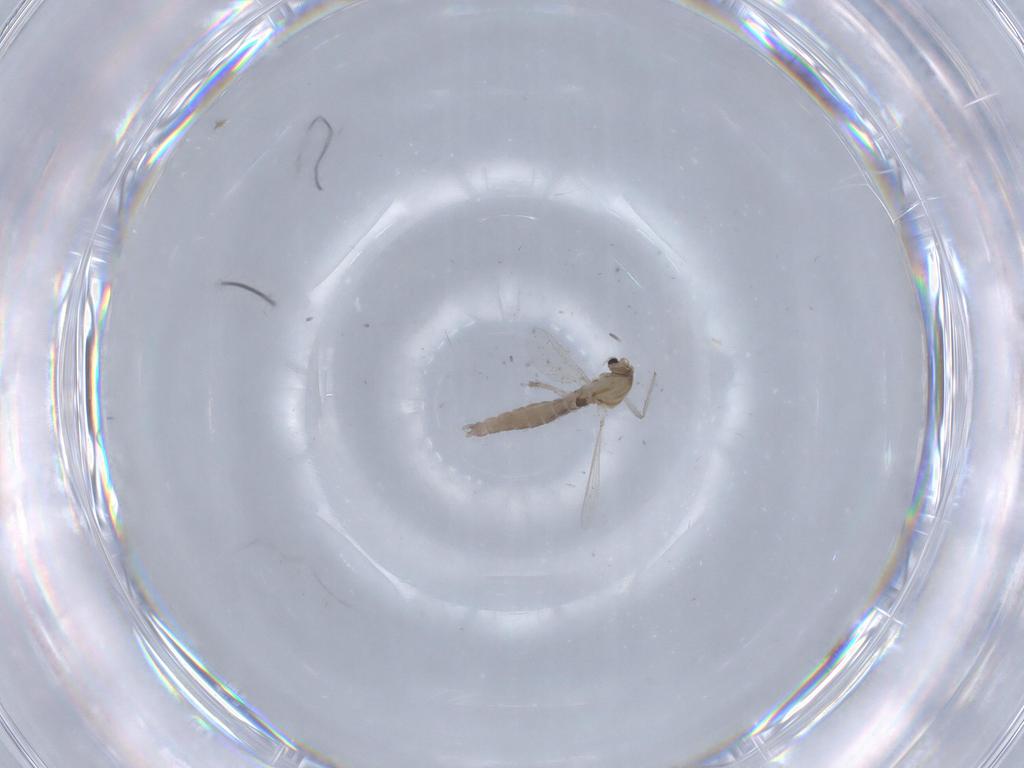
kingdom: Animalia
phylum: Arthropoda
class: Insecta
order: Diptera
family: Chironomidae
